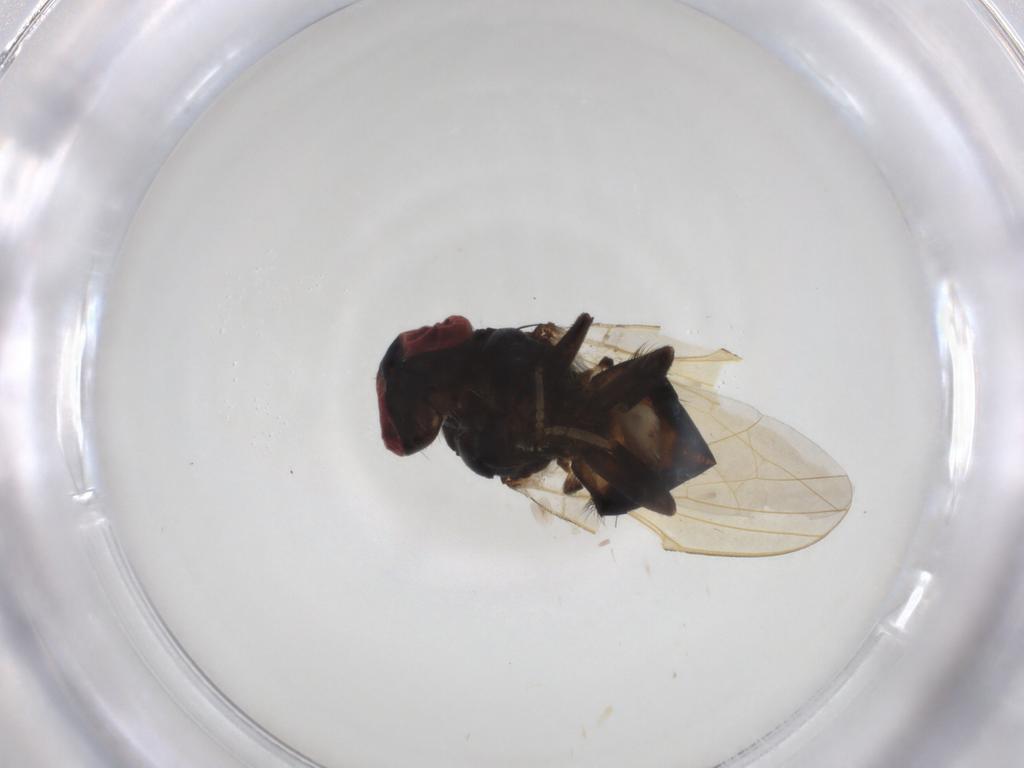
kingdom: Animalia
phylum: Arthropoda
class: Insecta
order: Diptera
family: Lonchaeidae
